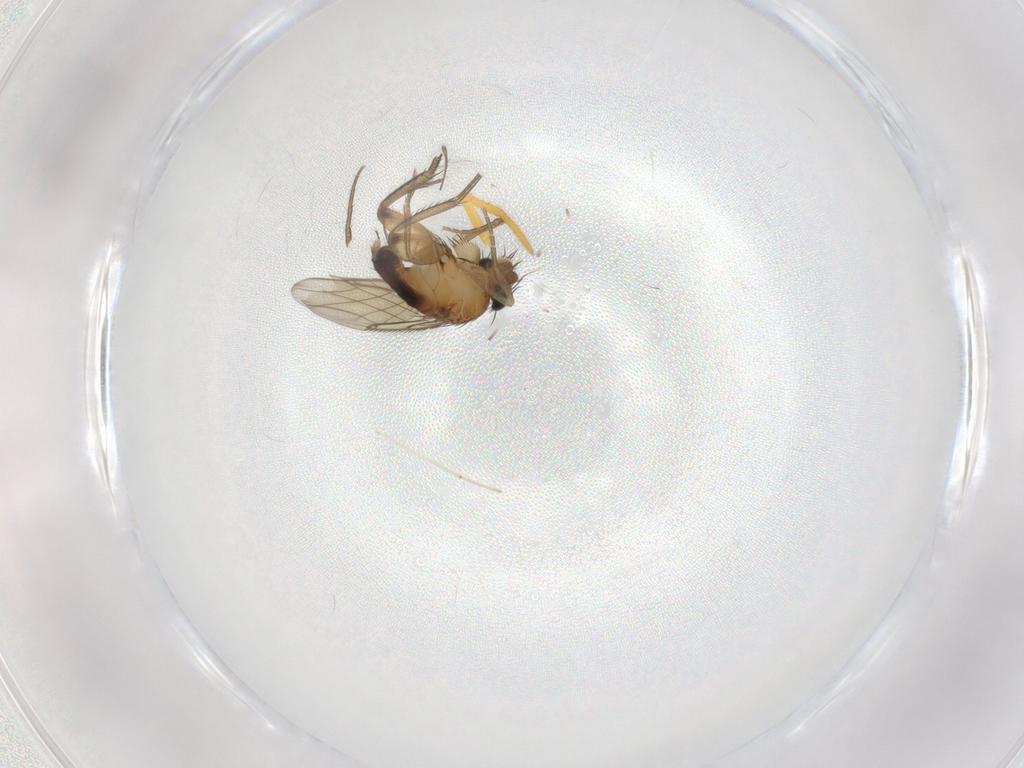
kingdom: Animalia
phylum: Arthropoda
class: Insecta
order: Diptera
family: Phoridae
